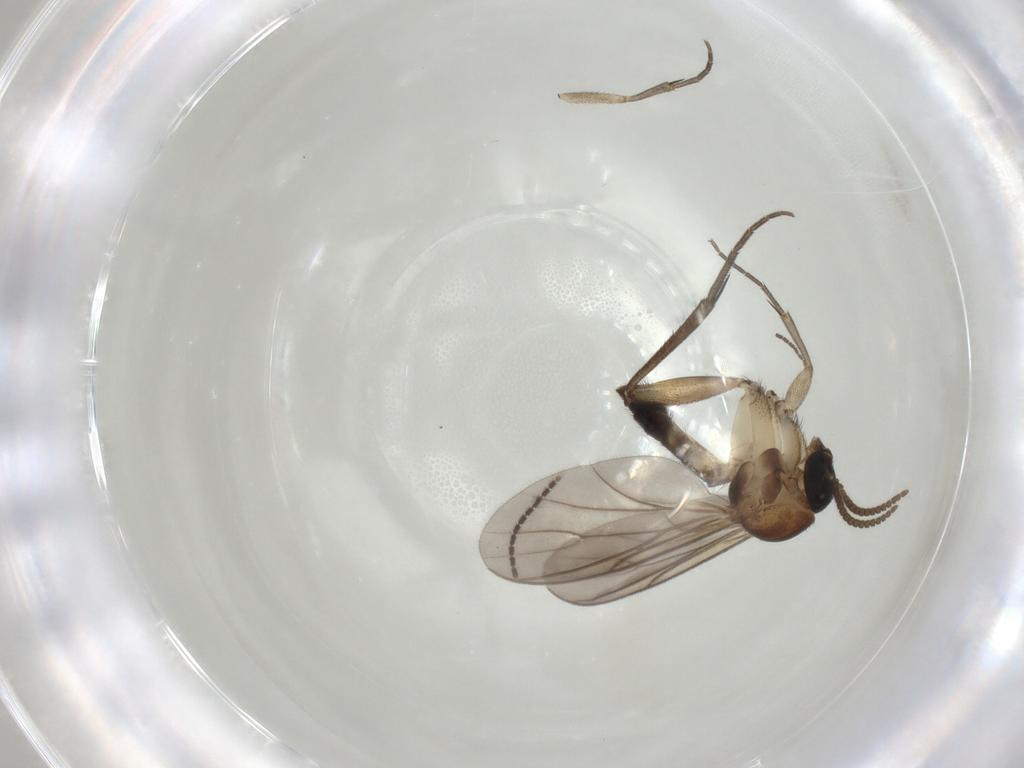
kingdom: Animalia
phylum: Arthropoda
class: Insecta
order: Diptera
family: Mycetophilidae
